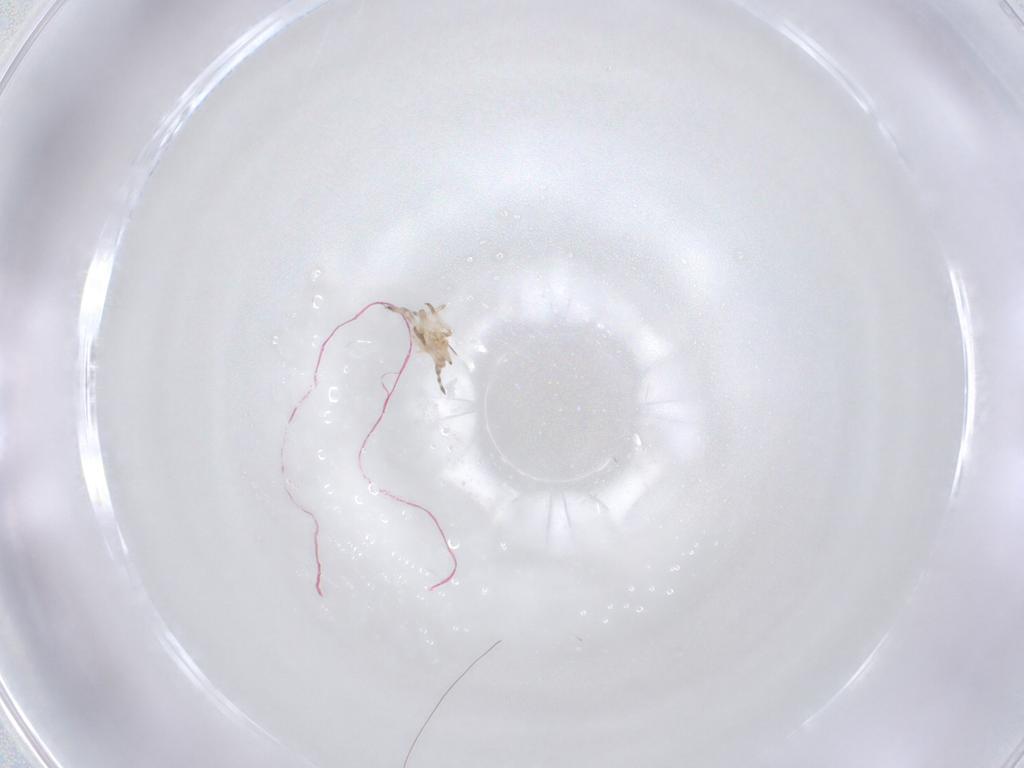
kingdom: Animalia
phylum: Arthropoda
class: Insecta
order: Hemiptera
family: Aphididae
